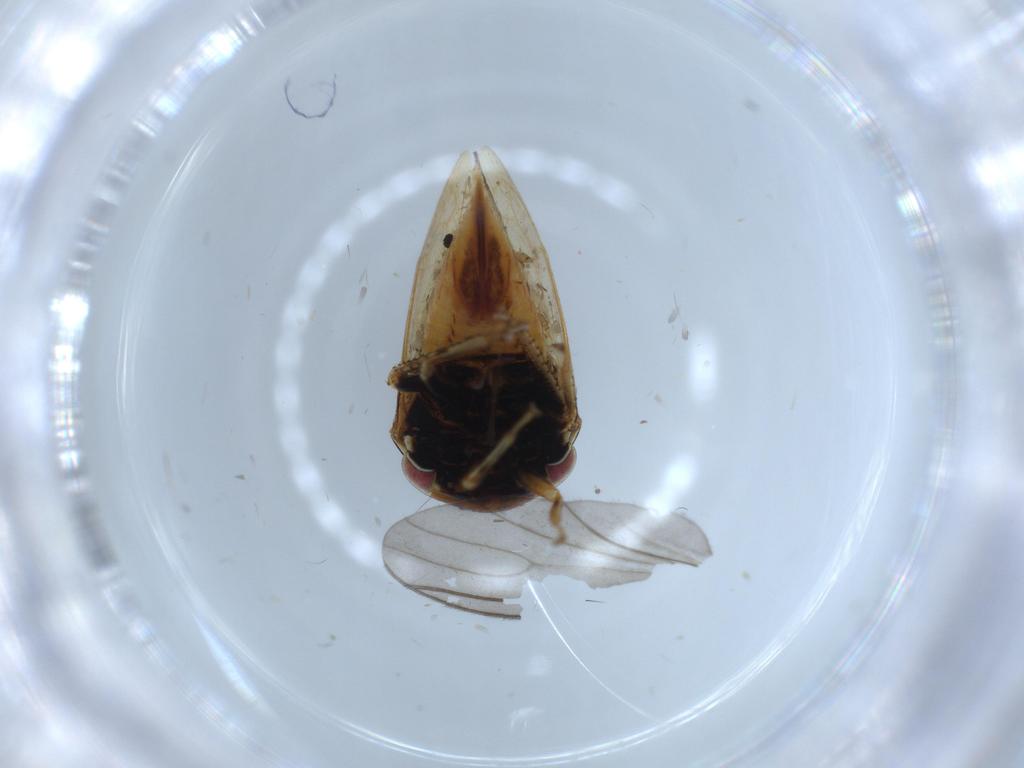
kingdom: Animalia
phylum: Arthropoda
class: Insecta
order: Hemiptera
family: Membracidae
